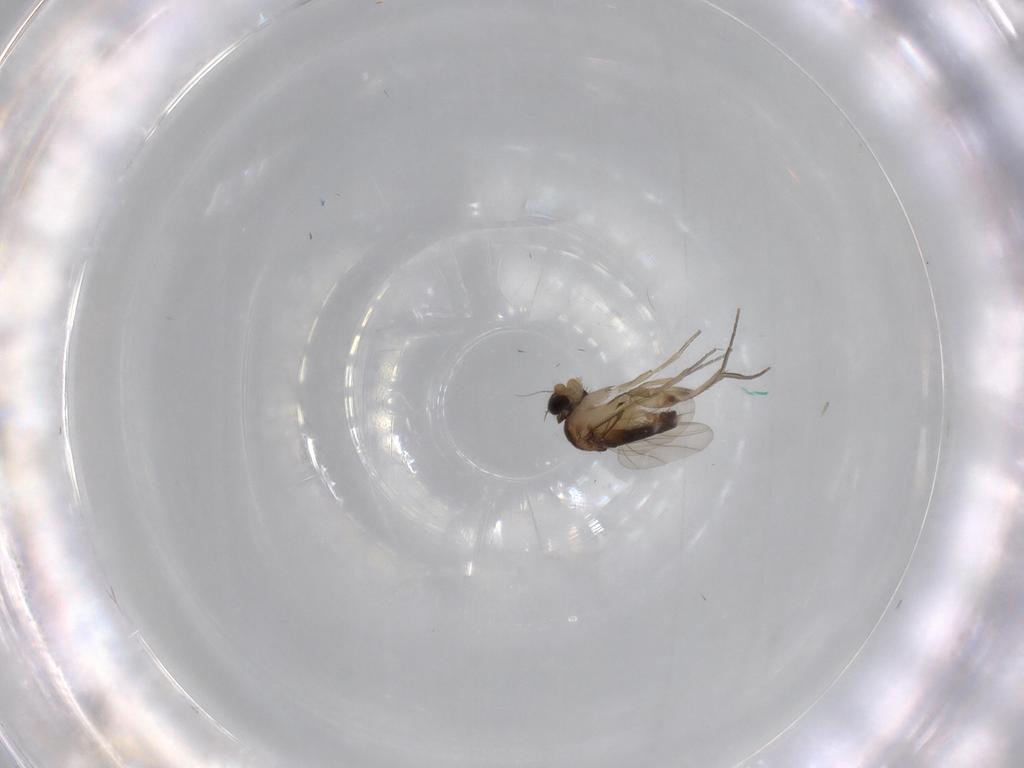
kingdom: Animalia
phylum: Arthropoda
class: Insecta
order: Diptera
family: Phoridae
